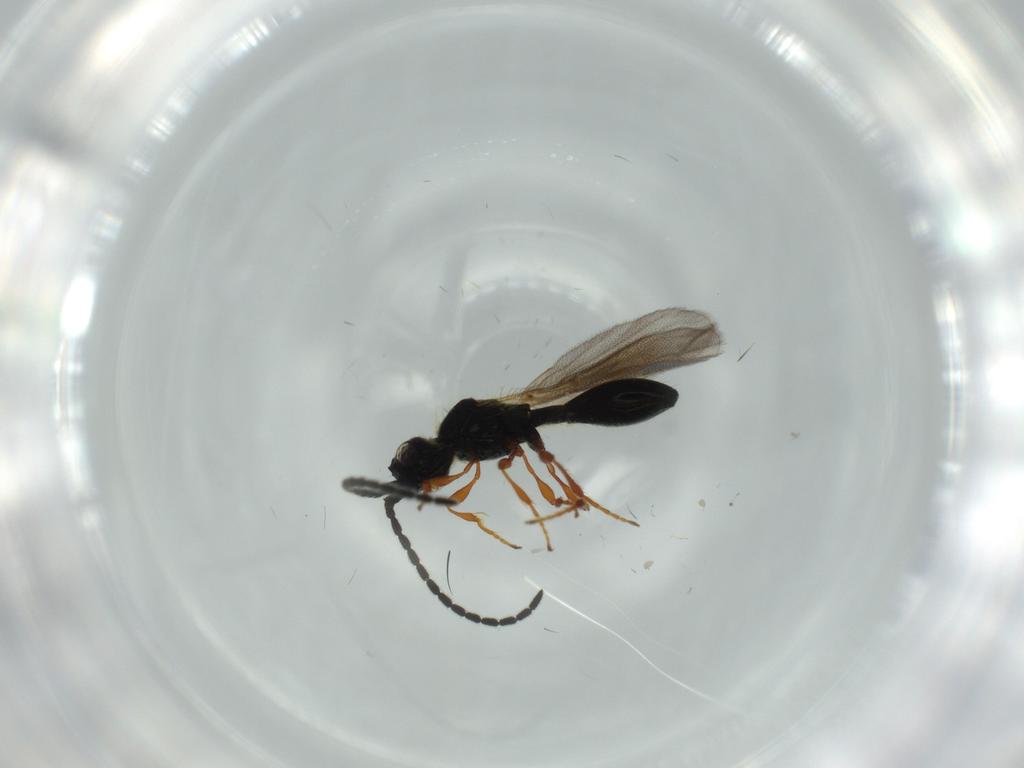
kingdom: Animalia
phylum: Arthropoda
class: Insecta
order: Hymenoptera
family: Diapriidae
